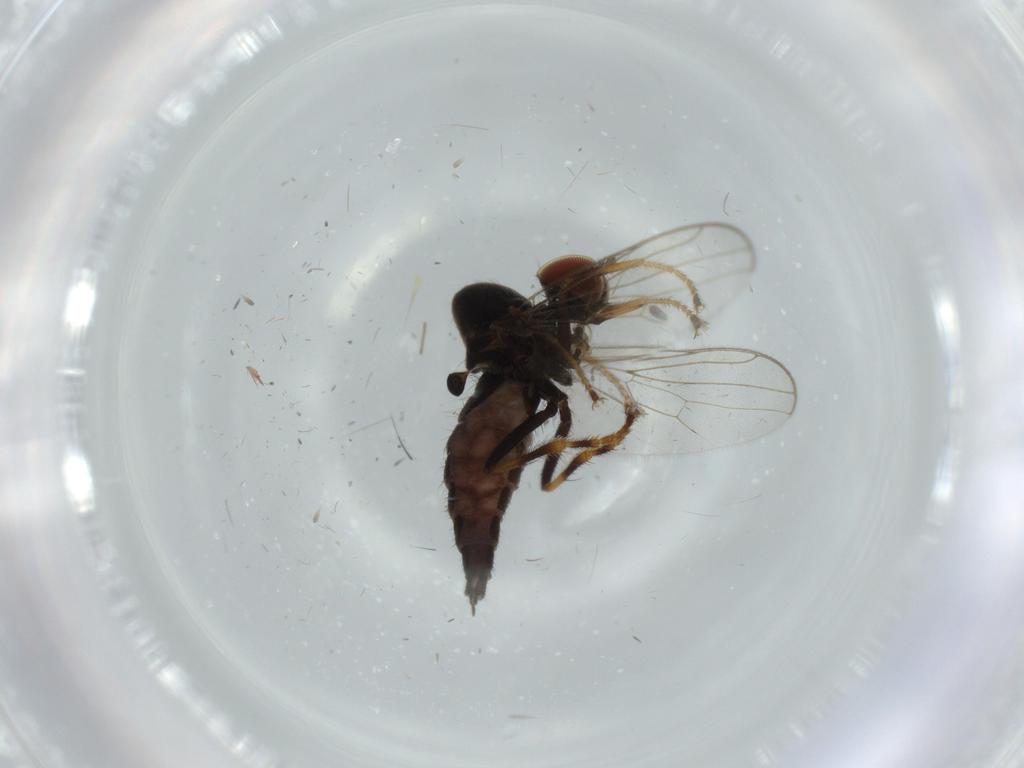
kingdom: Animalia
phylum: Arthropoda
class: Insecta
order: Diptera
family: Hybotidae
